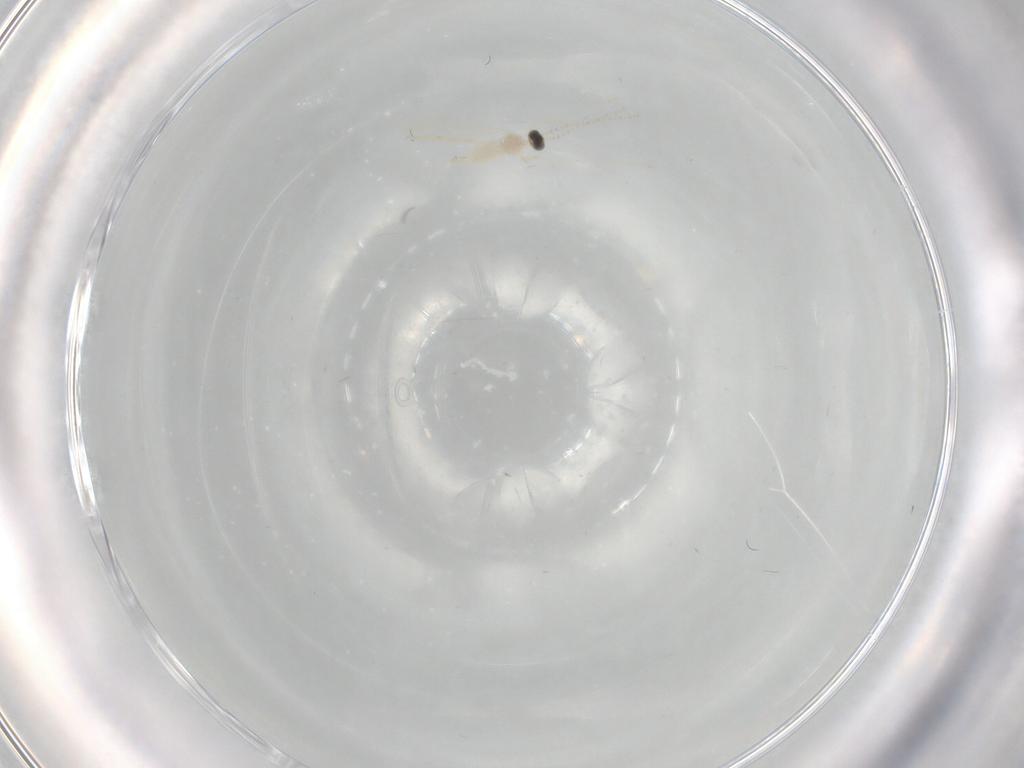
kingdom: Animalia
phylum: Arthropoda
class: Insecta
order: Diptera
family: Cecidomyiidae
